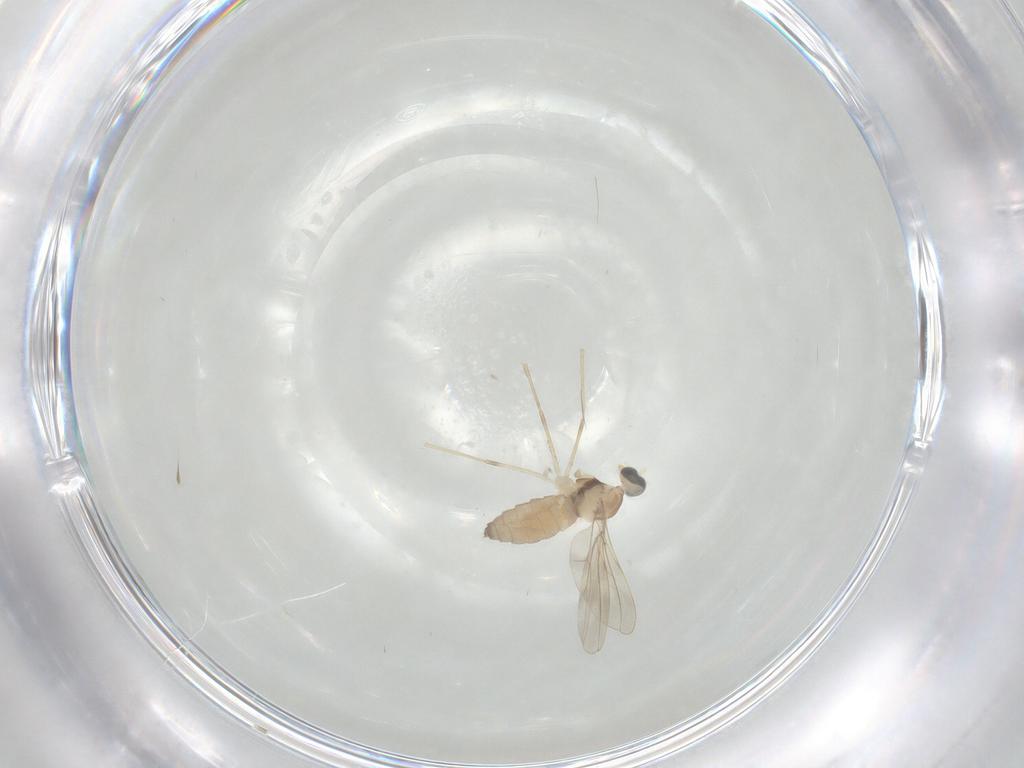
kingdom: Animalia
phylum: Arthropoda
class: Insecta
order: Diptera
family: Cecidomyiidae
